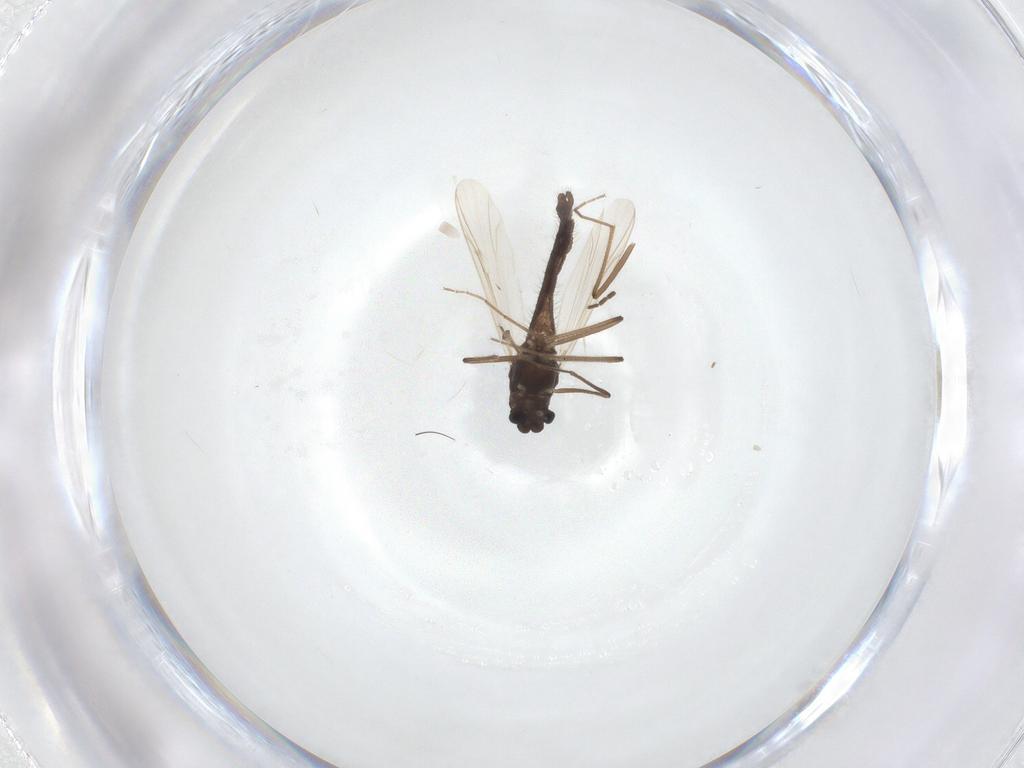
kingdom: Animalia
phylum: Arthropoda
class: Insecta
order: Diptera
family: Chironomidae
